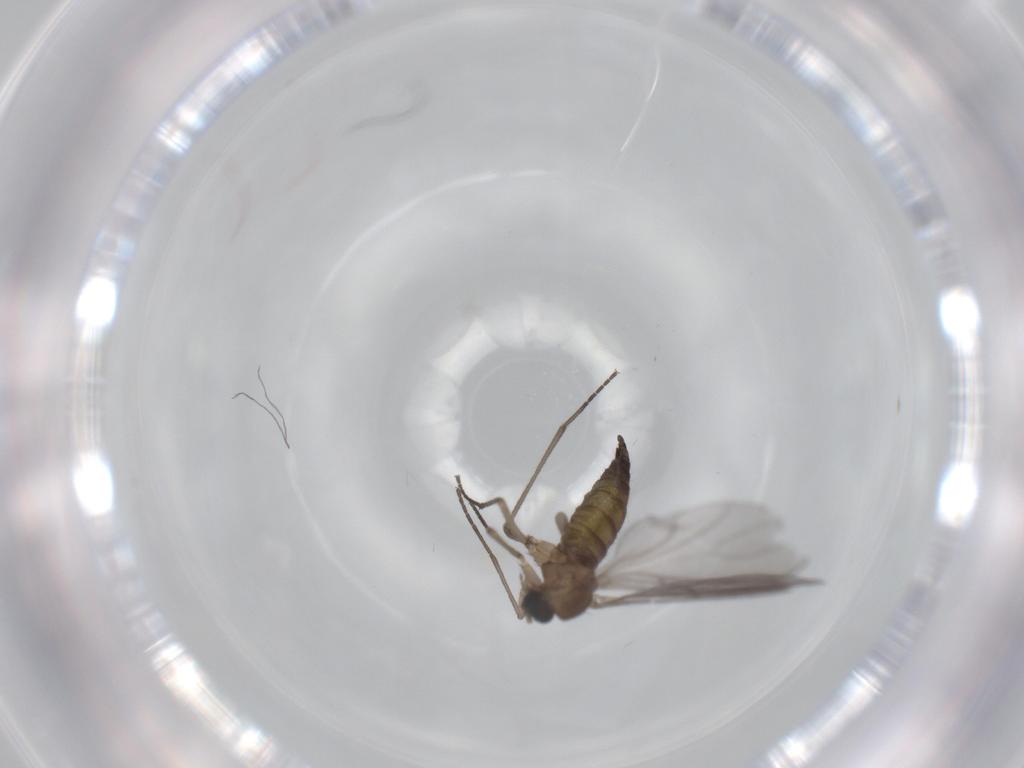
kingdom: Animalia
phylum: Arthropoda
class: Insecta
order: Diptera
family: Sciaridae
